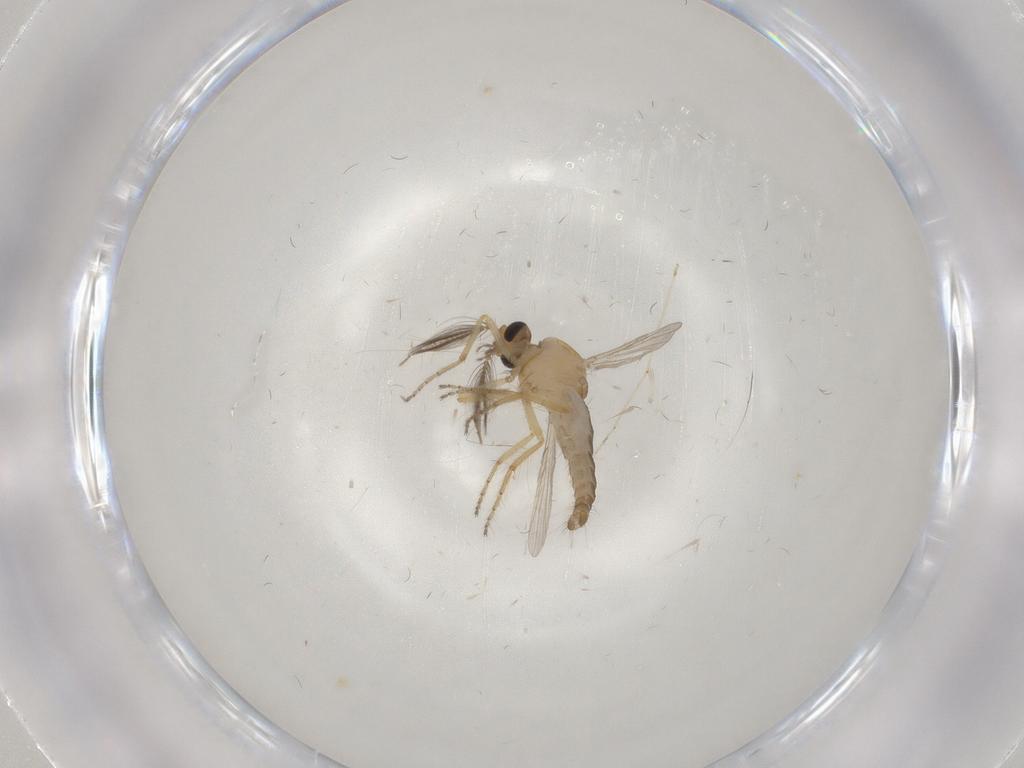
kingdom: Animalia
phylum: Arthropoda
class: Insecta
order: Diptera
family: Ceratopogonidae
